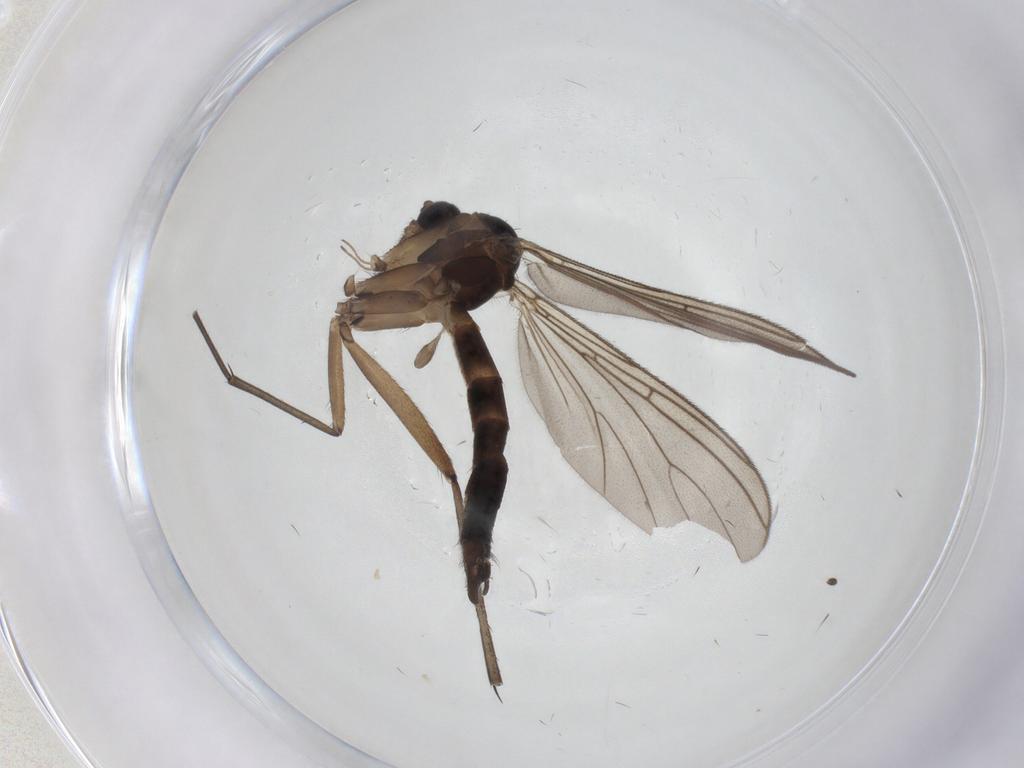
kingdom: Animalia
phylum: Arthropoda
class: Insecta
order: Diptera
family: Sciaridae
